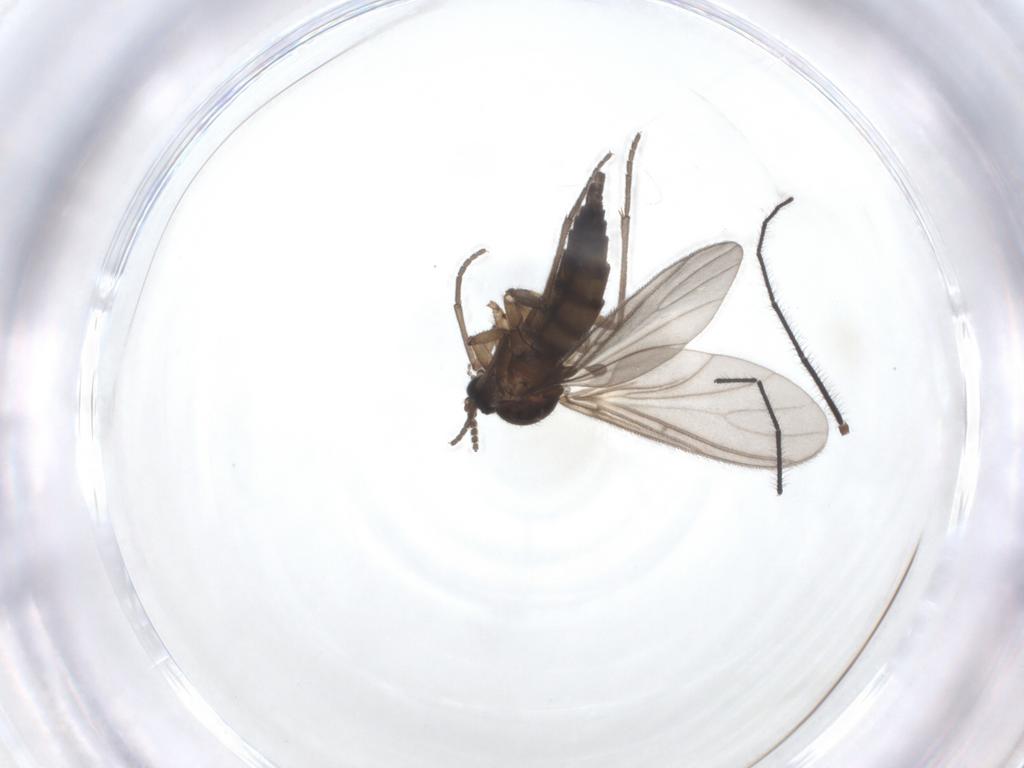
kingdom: Animalia
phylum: Arthropoda
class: Insecta
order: Diptera
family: Sciaridae
